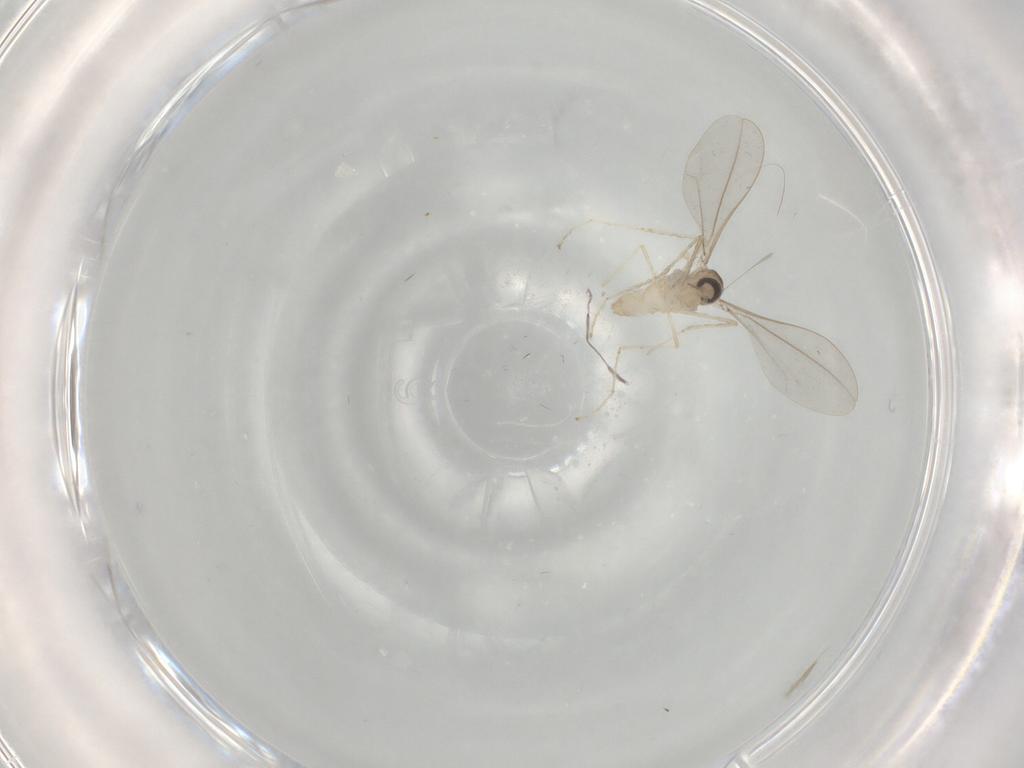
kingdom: Animalia
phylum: Arthropoda
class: Insecta
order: Diptera
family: Cecidomyiidae
